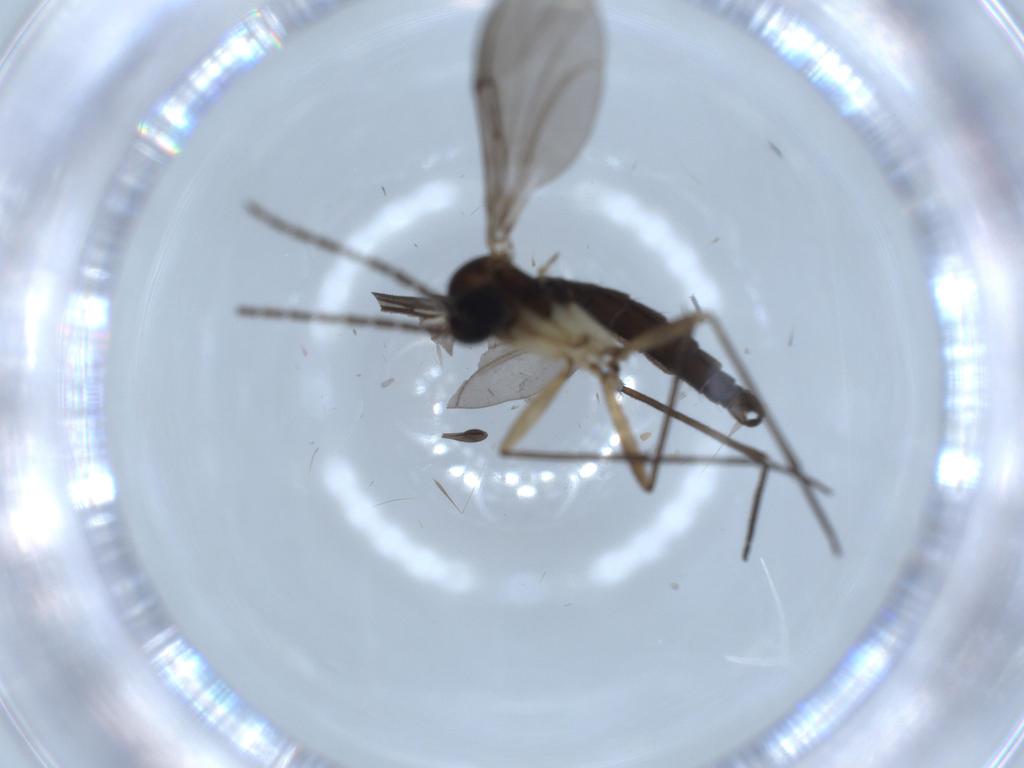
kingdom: Animalia
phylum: Arthropoda
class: Insecta
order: Diptera
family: Sciaridae
